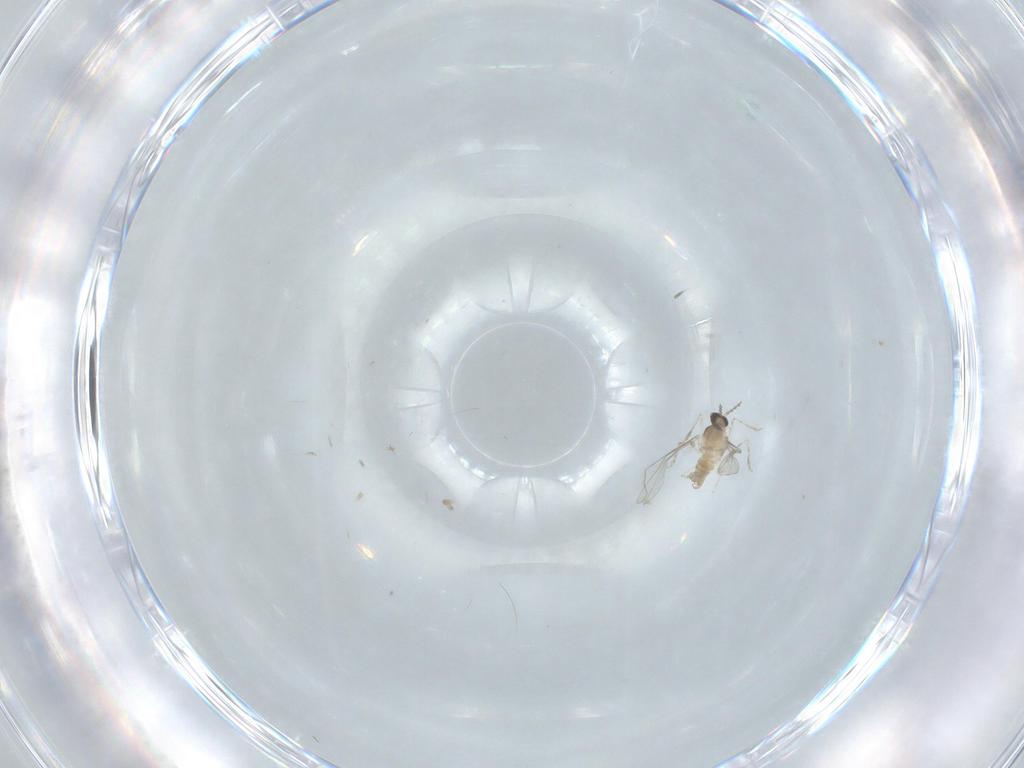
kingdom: Animalia
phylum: Arthropoda
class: Insecta
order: Diptera
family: Cecidomyiidae
